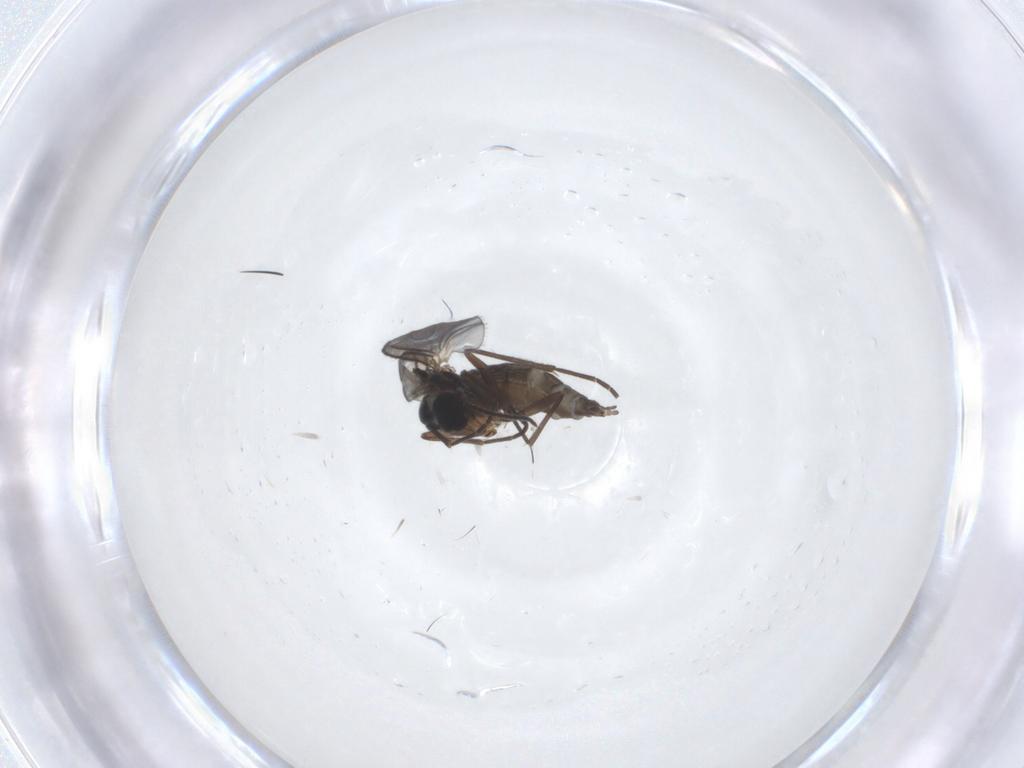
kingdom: Animalia
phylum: Arthropoda
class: Insecta
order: Diptera
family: Sciaridae
